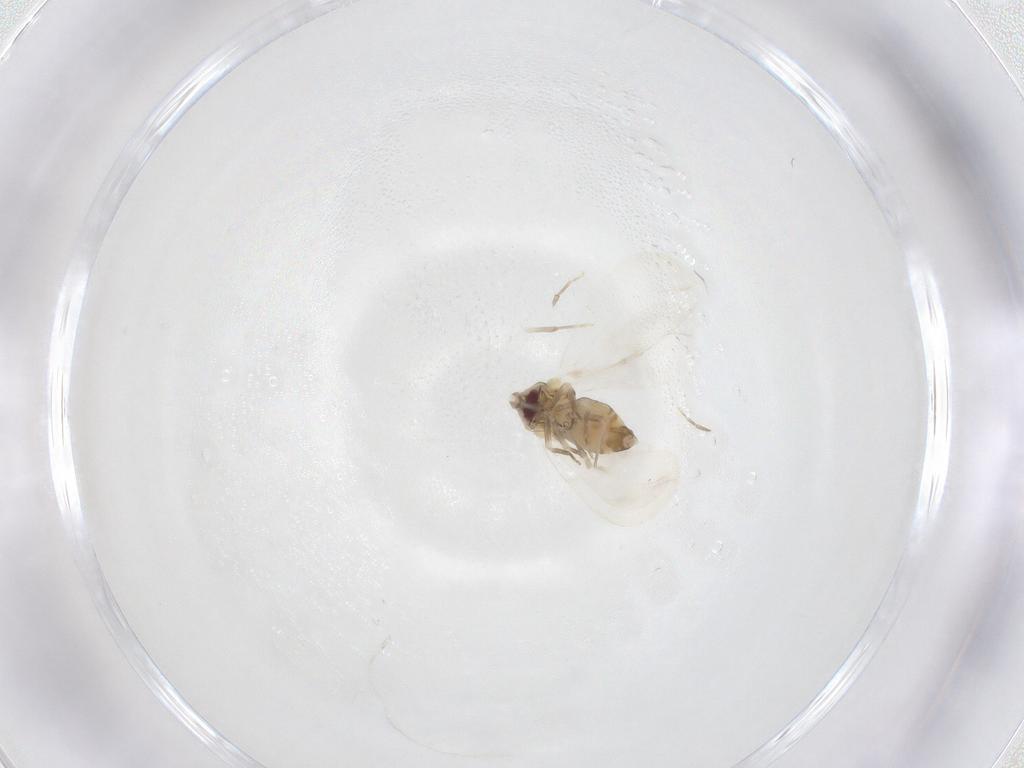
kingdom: Animalia
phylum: Arthropoda
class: Insecta
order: Hemiptera
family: Aleyrodidae
